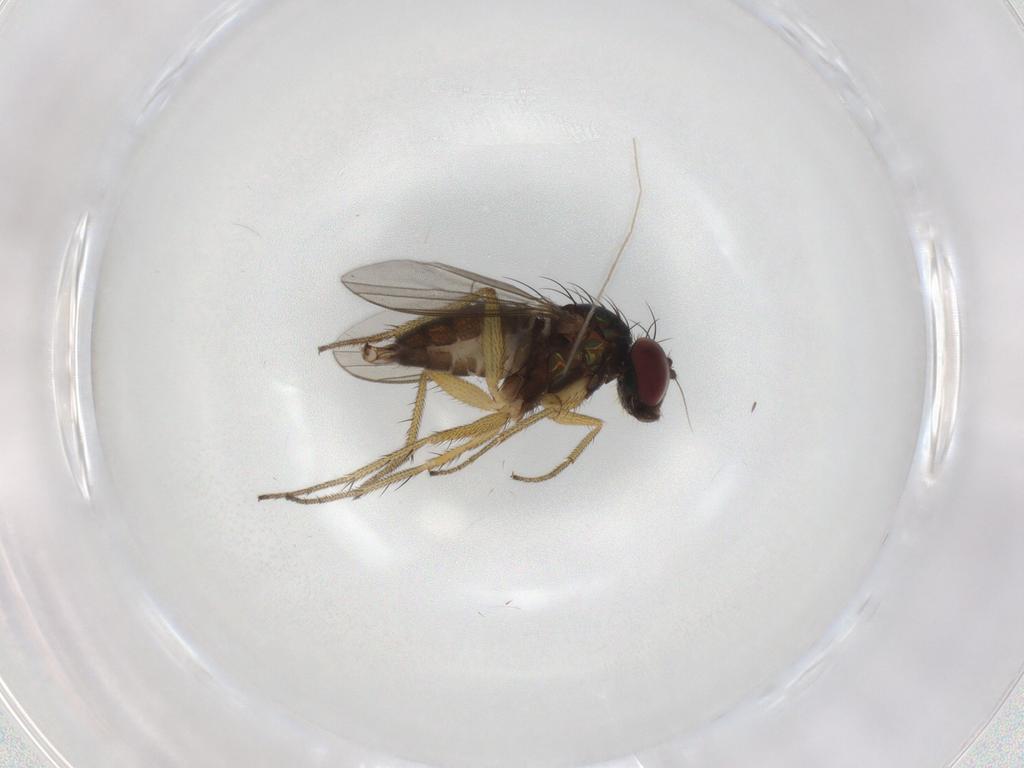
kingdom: Animalia
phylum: Arthropoda
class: Insecta
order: Diptera
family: Chironomidae
